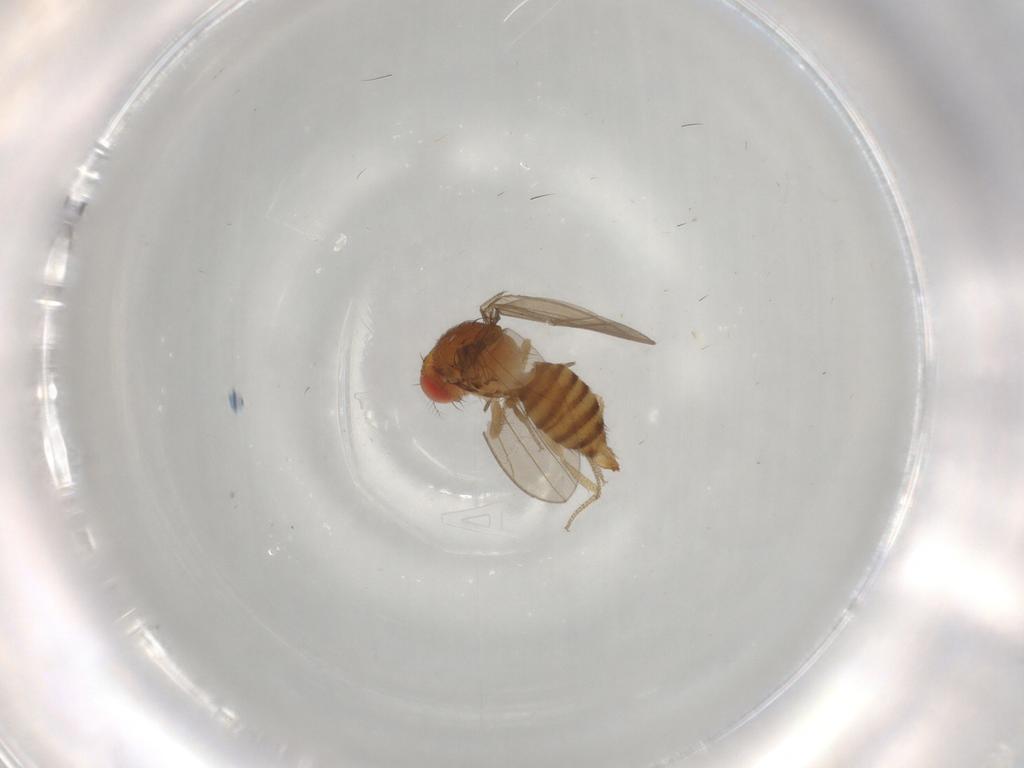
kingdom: Animalia
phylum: Arthropoda
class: Insecta
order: Diptera
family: Drosophilidae
